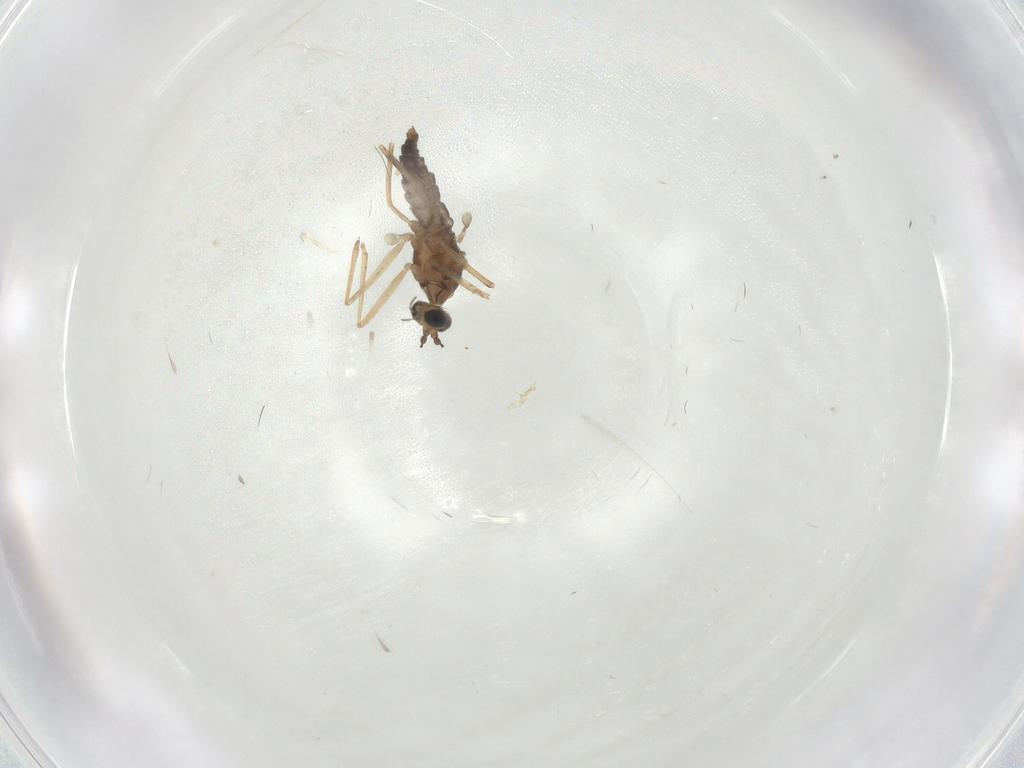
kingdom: Animalia
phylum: Arthropoda
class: Insecta
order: Diptera
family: Cecidomyiidae
